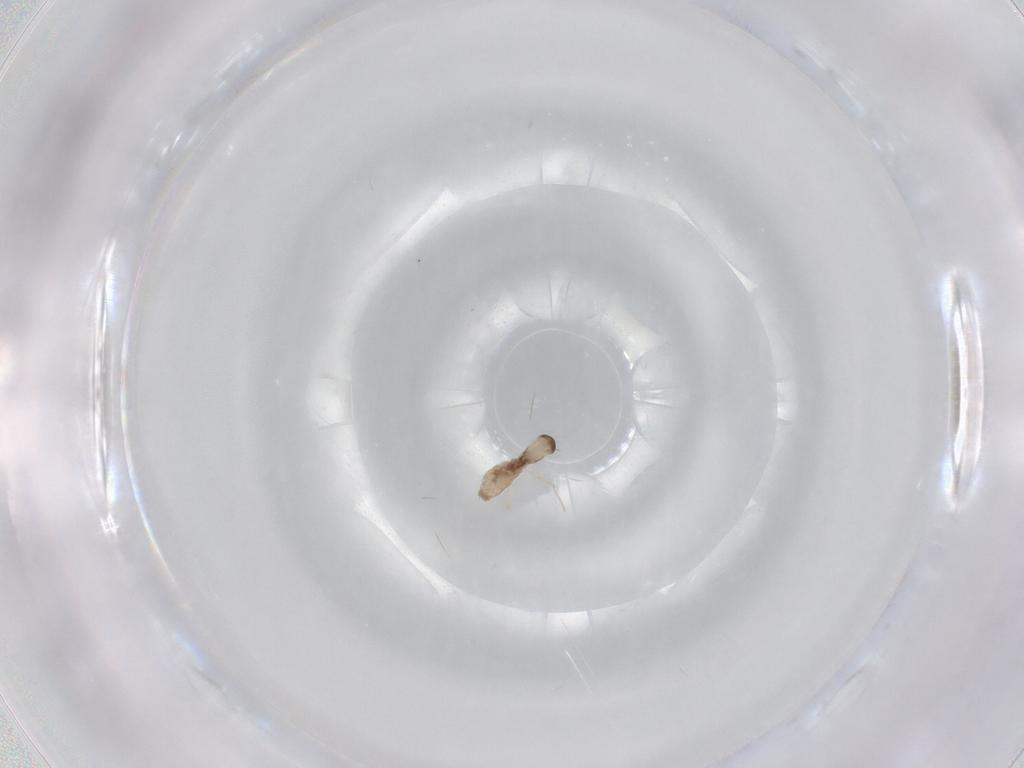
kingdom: Animalia
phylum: Arthropoda
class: Insecta
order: Diptera
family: Cecidomyiidae
